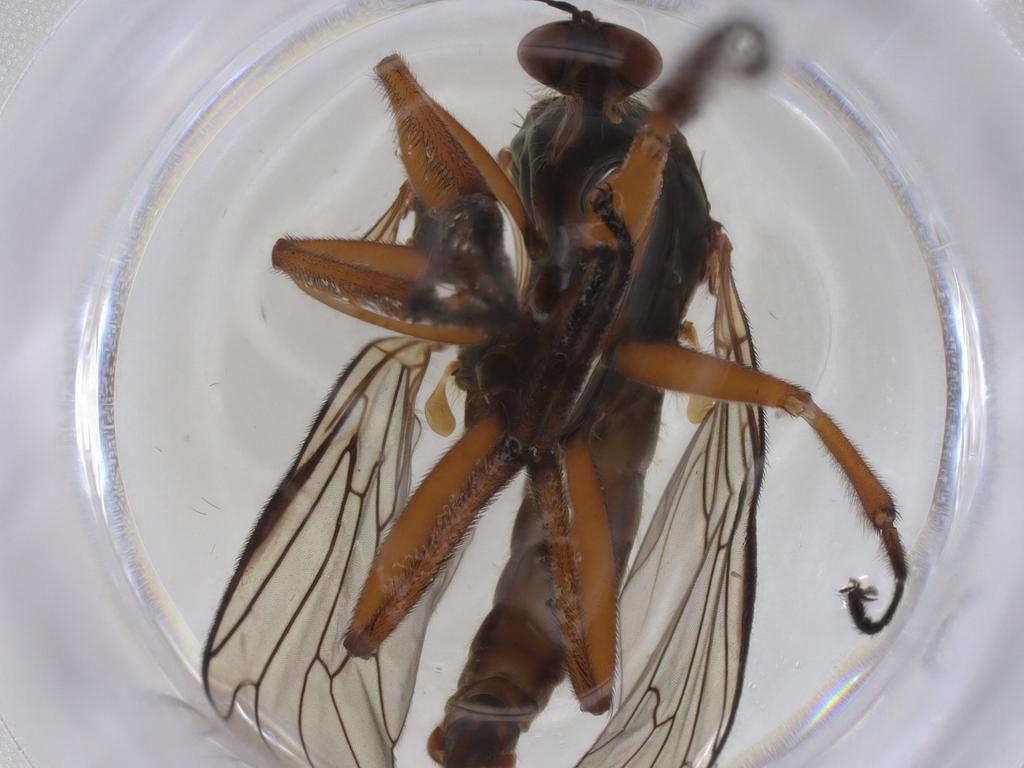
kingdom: Animalia
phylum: Arthropoda
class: Insecta
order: Diptera
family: Empididae
